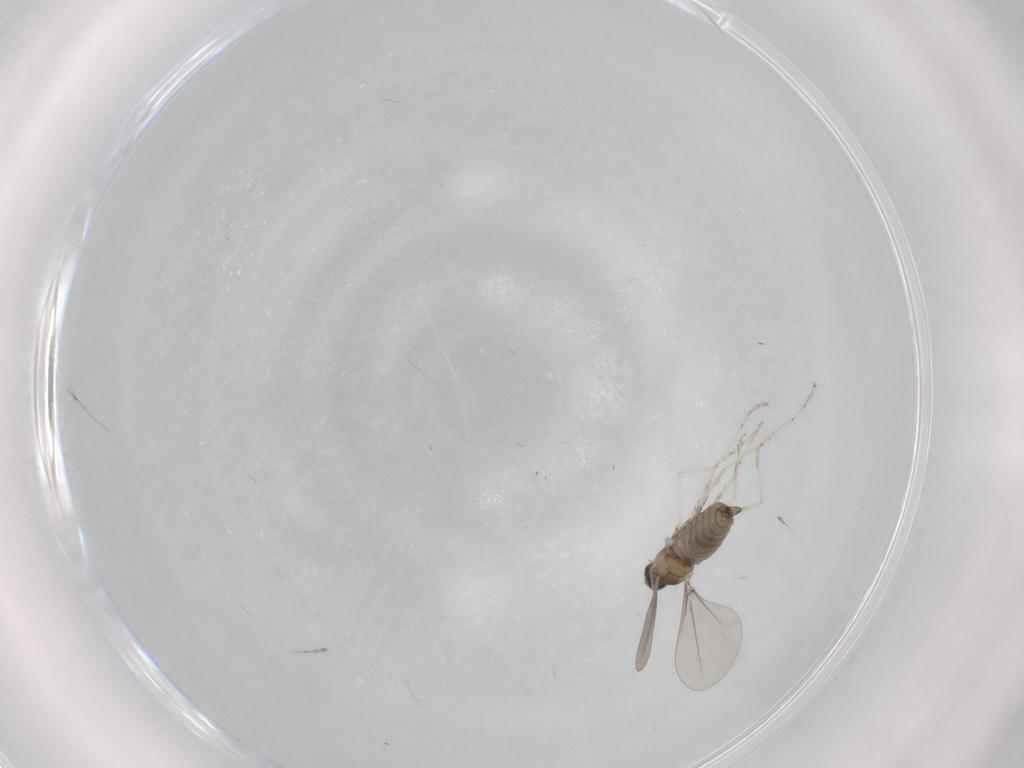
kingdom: Animalia
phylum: Arthropoda
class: Insecta
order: Diptera
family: Cecidomyiidae
